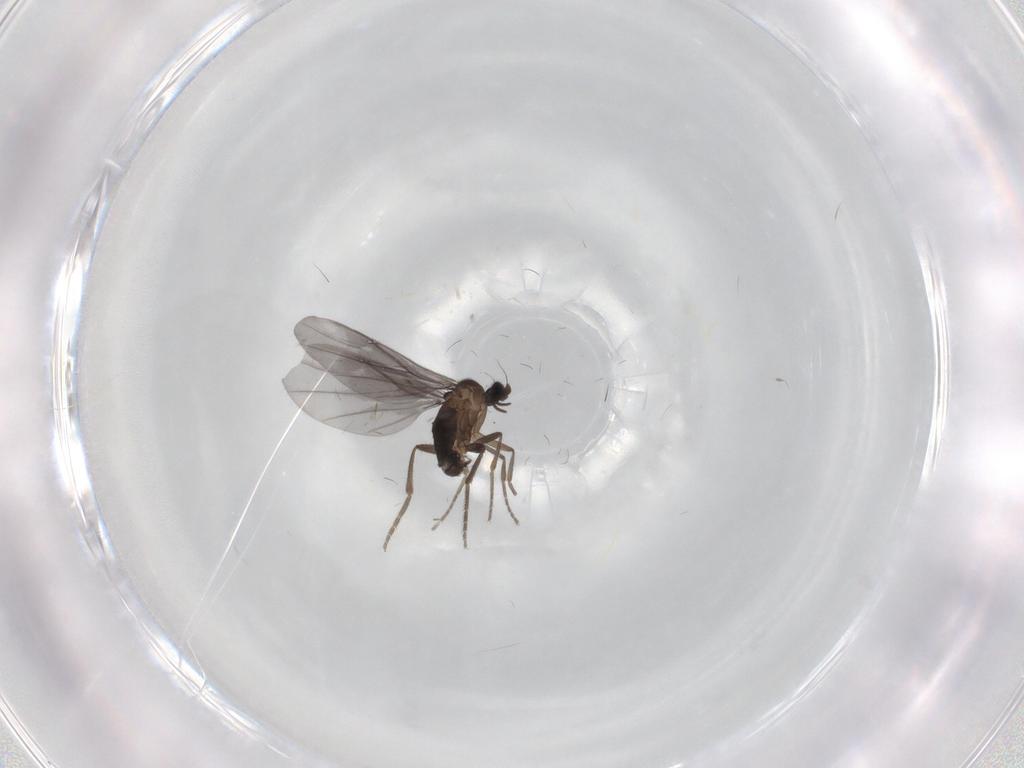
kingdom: Animalia
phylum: Arthropoda
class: Insecta
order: Diptera
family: Phoridae
